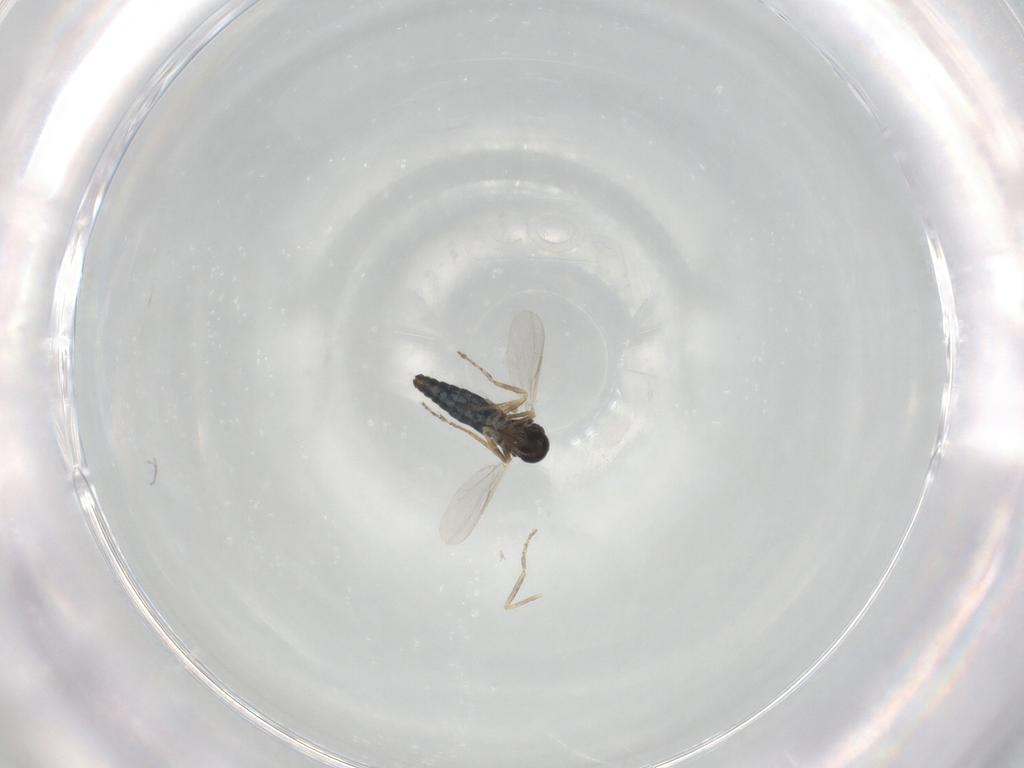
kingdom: Animalia
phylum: Arthropoda
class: Insecta
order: Diptera
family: Ceratopogonidae
